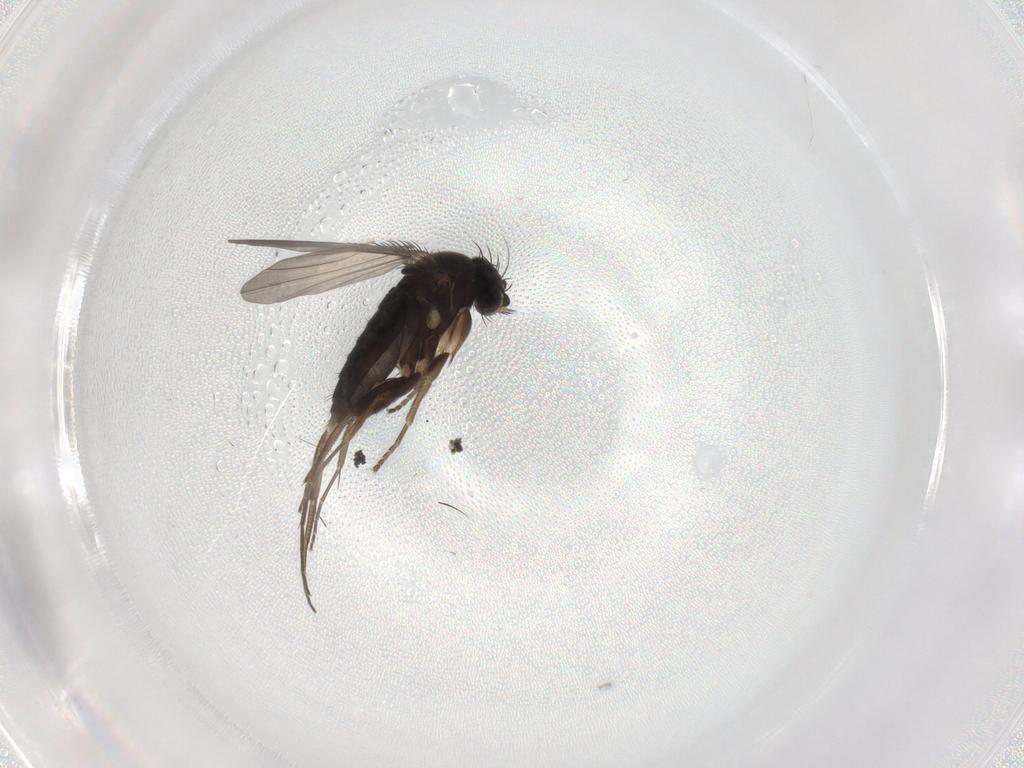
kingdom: Animalia
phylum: Arthropoda
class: Insecta
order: Diptera
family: Phoridae
